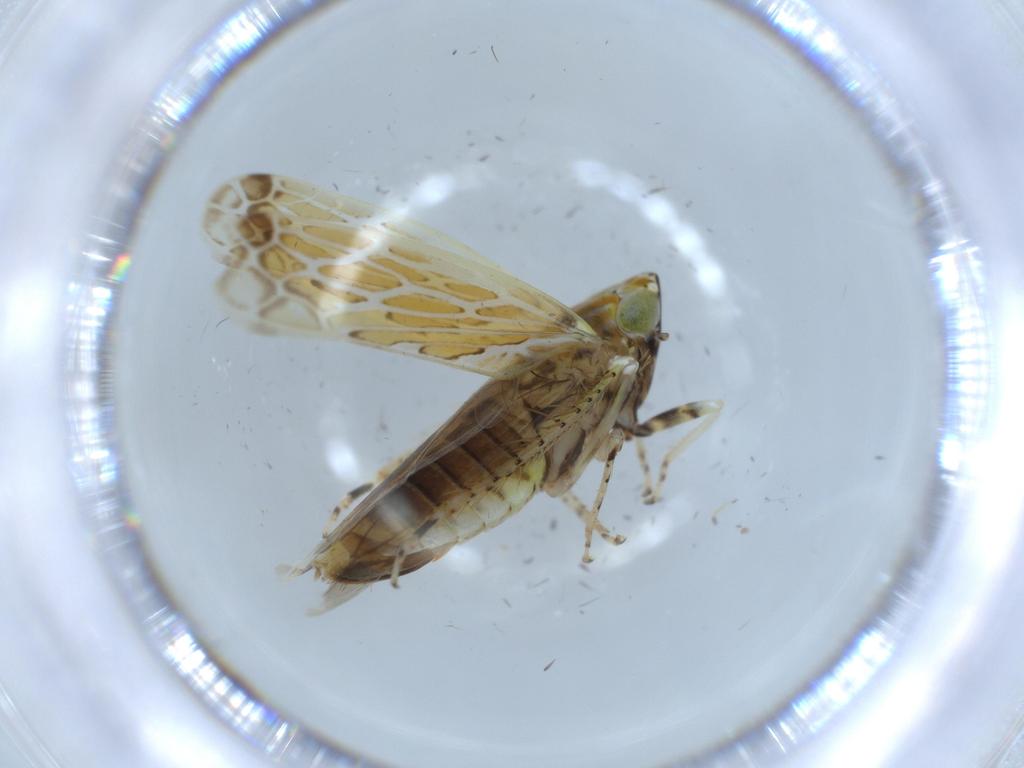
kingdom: Animalia
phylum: Arthropoda
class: Insecta
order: Hemiptera
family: Cicadellidae
